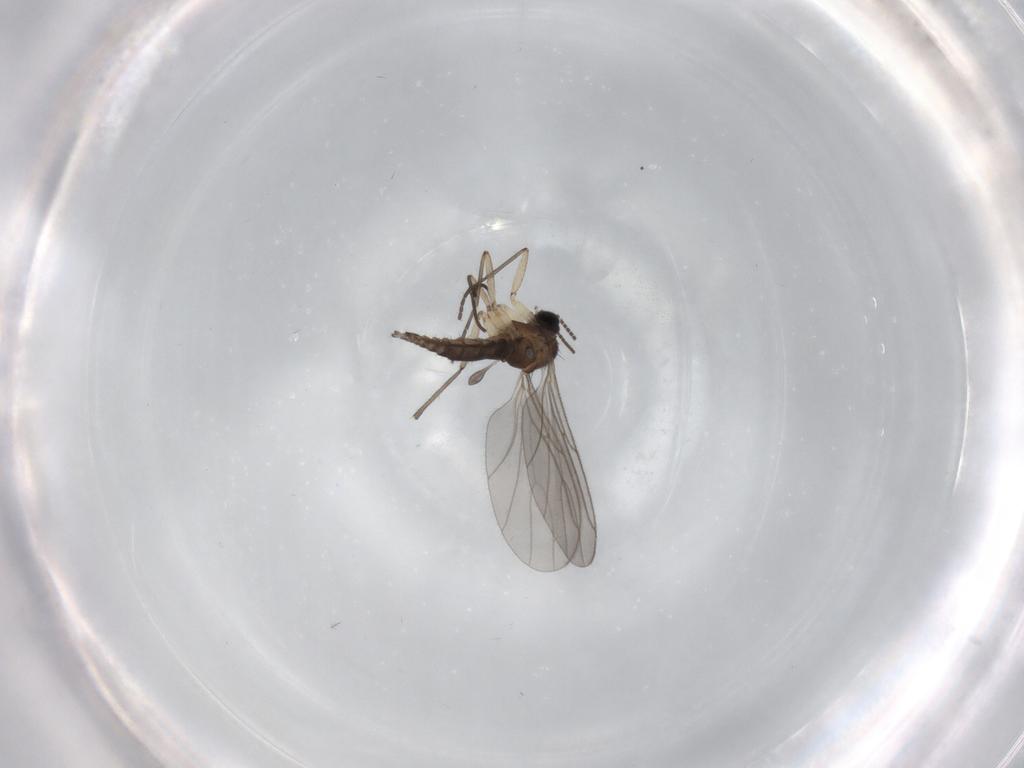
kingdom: Animalia
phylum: Arthropoda
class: Insecta
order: Diptera
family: Sciaridae
